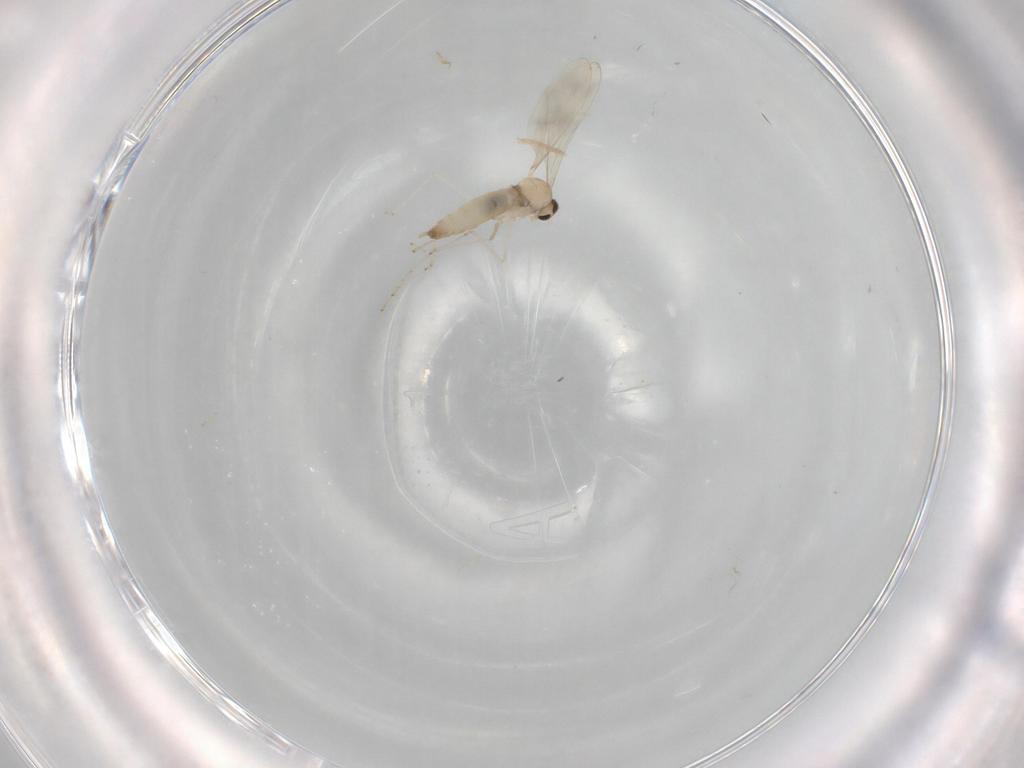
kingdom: Animalia
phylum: Arthropoda
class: Insecta
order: Diptera
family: Cecidomyiidae
